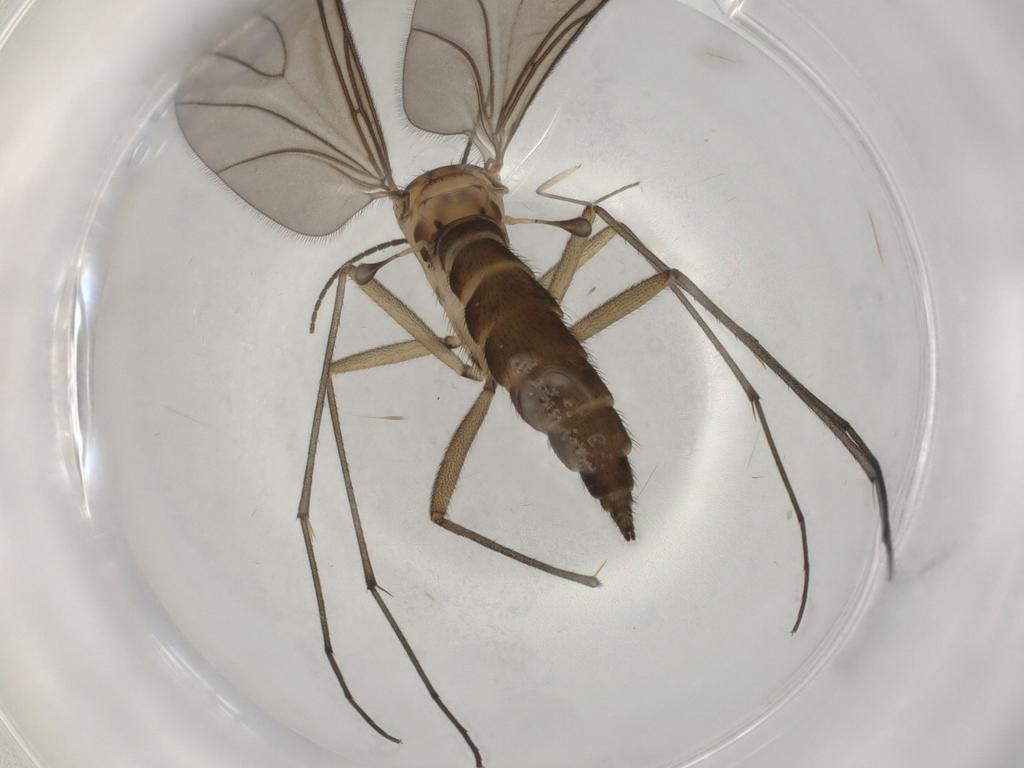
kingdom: Animalia
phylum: Arthropoda
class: Insecta
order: Diptera
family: Sciaridae
